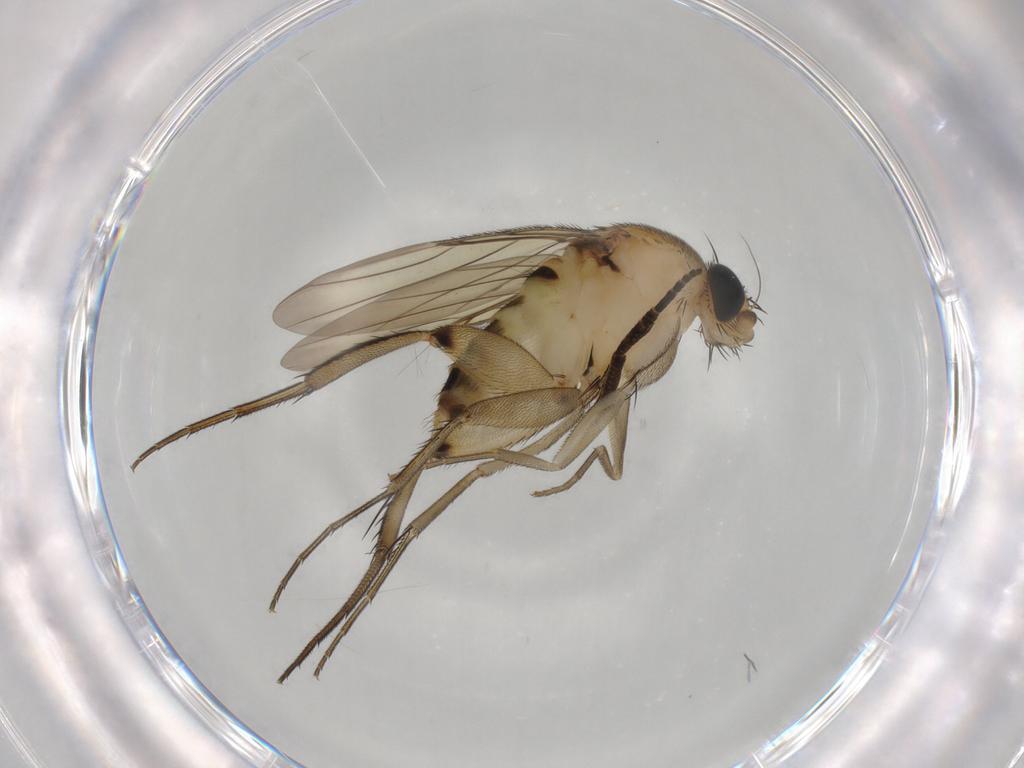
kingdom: Animalia
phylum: Arthropoda
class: Insecta
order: Diptera
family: Phoridae
